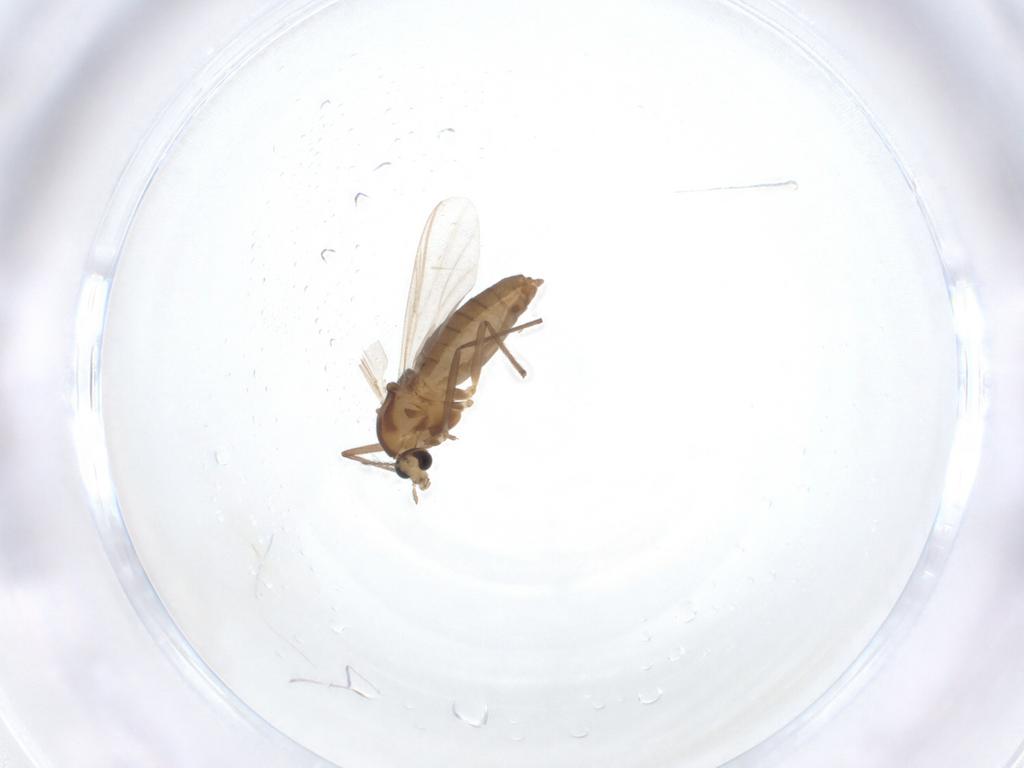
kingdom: Animalia
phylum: Arthropoda
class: Insecta
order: Diptera
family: Chironomidae
